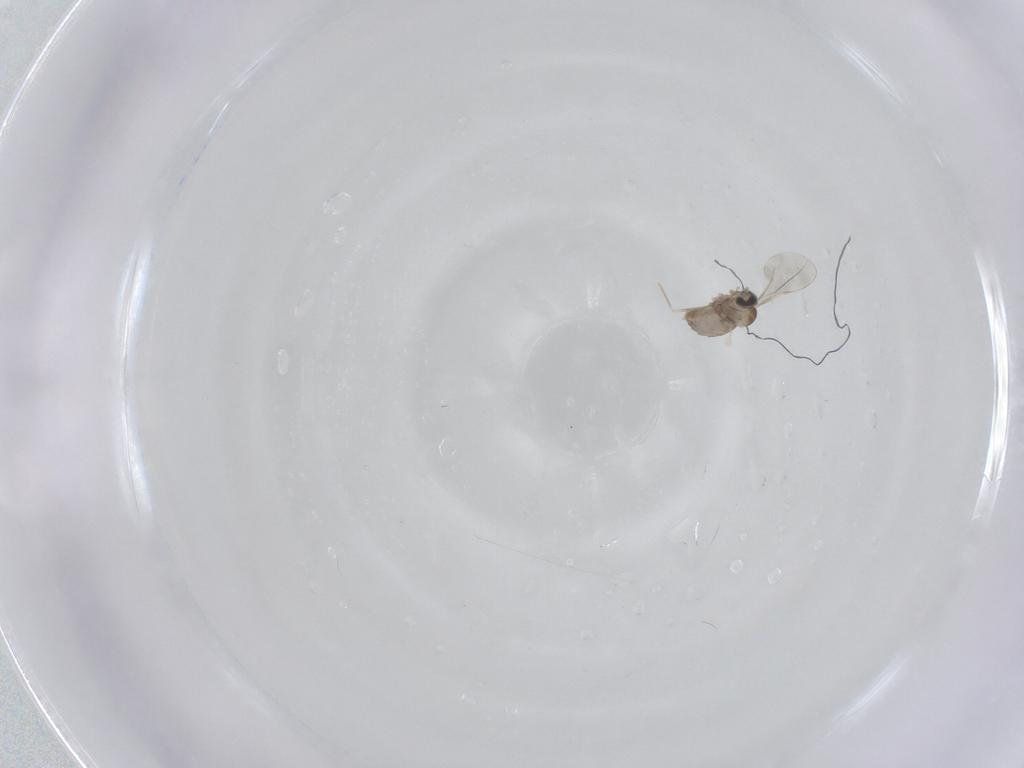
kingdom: Animalia
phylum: Arthropoda
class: Insecta
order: Diptera
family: Cecidomyiidae
